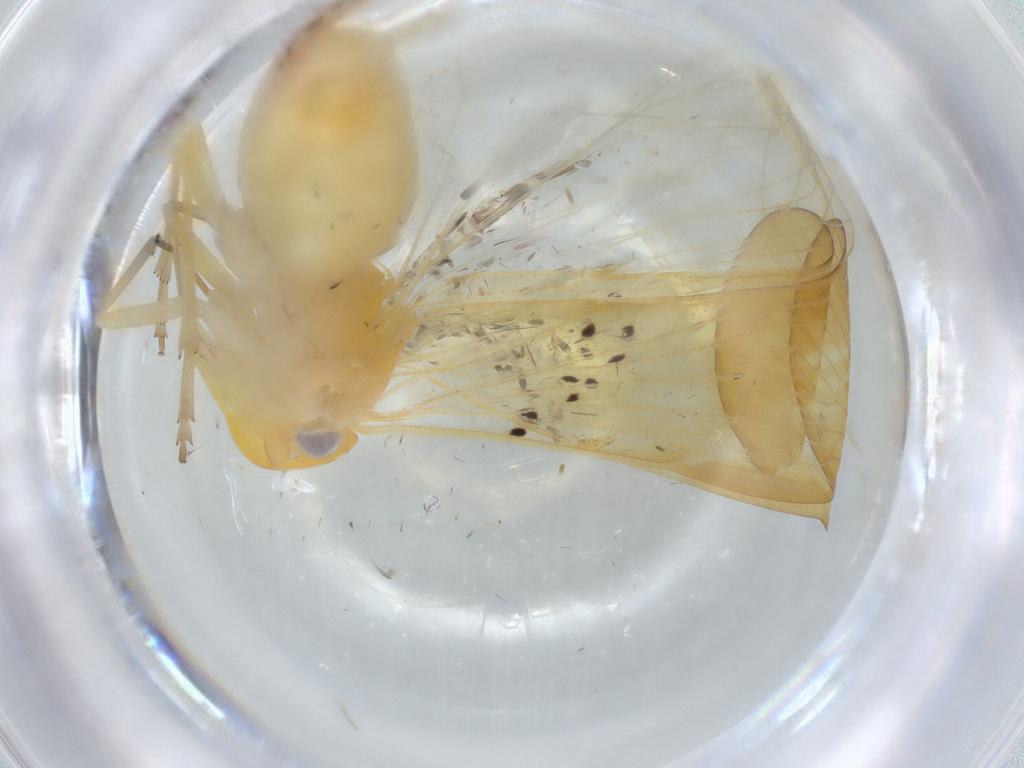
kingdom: Animalia
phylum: Arthropoda
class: Insecta
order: Hemiptera
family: Cixiidae
